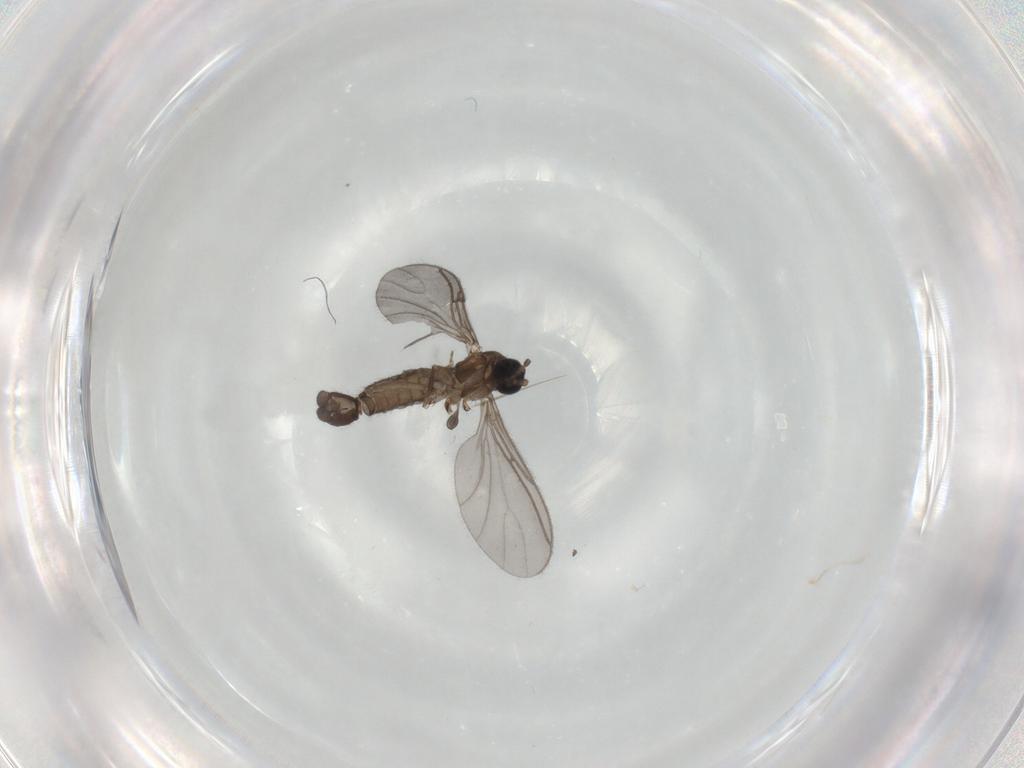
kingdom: Animalia
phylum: Arthropoda
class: Insecta
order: Diptera
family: Sciaridae
